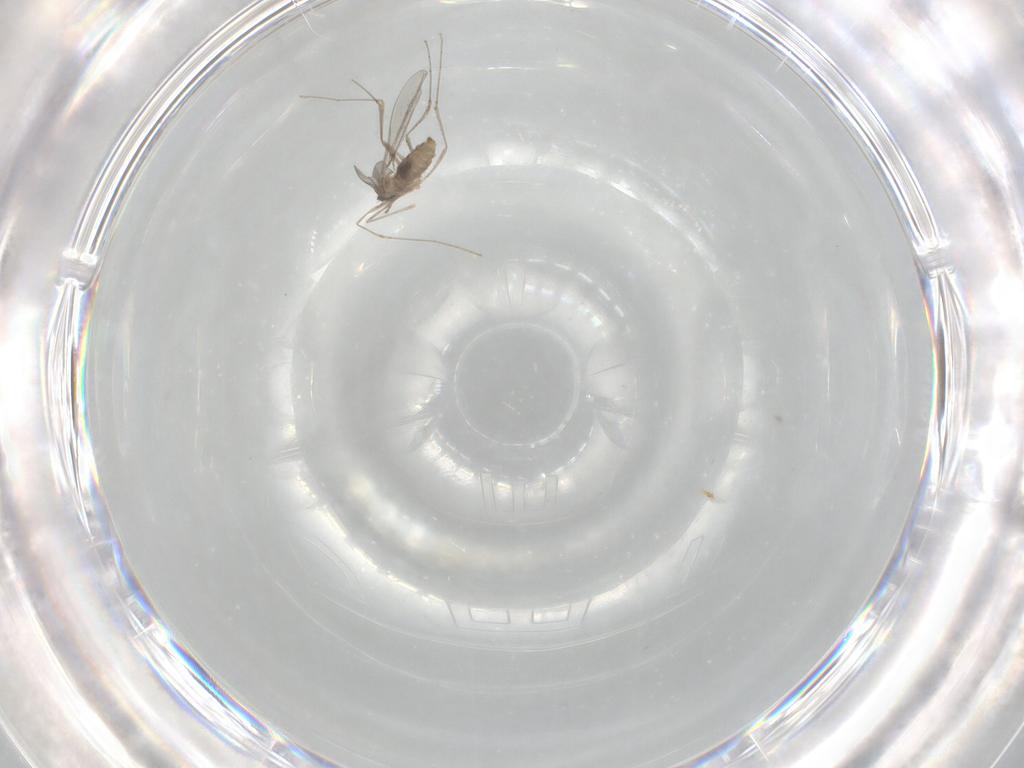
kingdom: Animalia
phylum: Arthropoda
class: Insecta
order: Diptera
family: Cecidomyiidae
